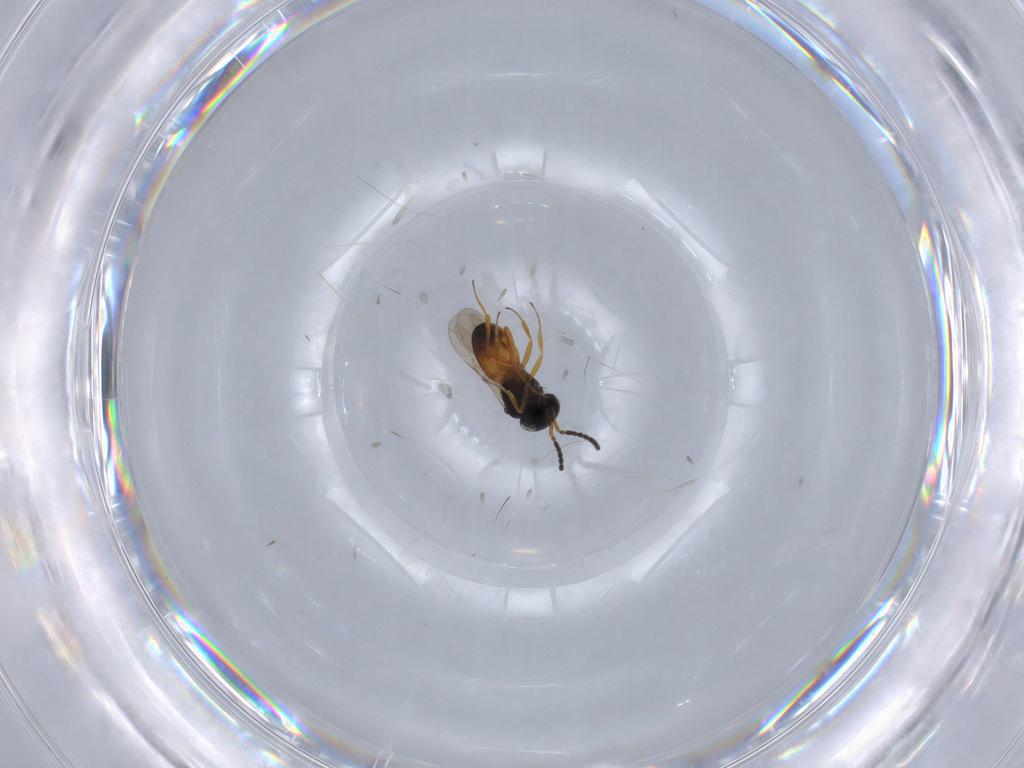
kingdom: Animalia
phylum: Arthropoda
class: Insecta
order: Hymenoptera
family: Scelionidae
